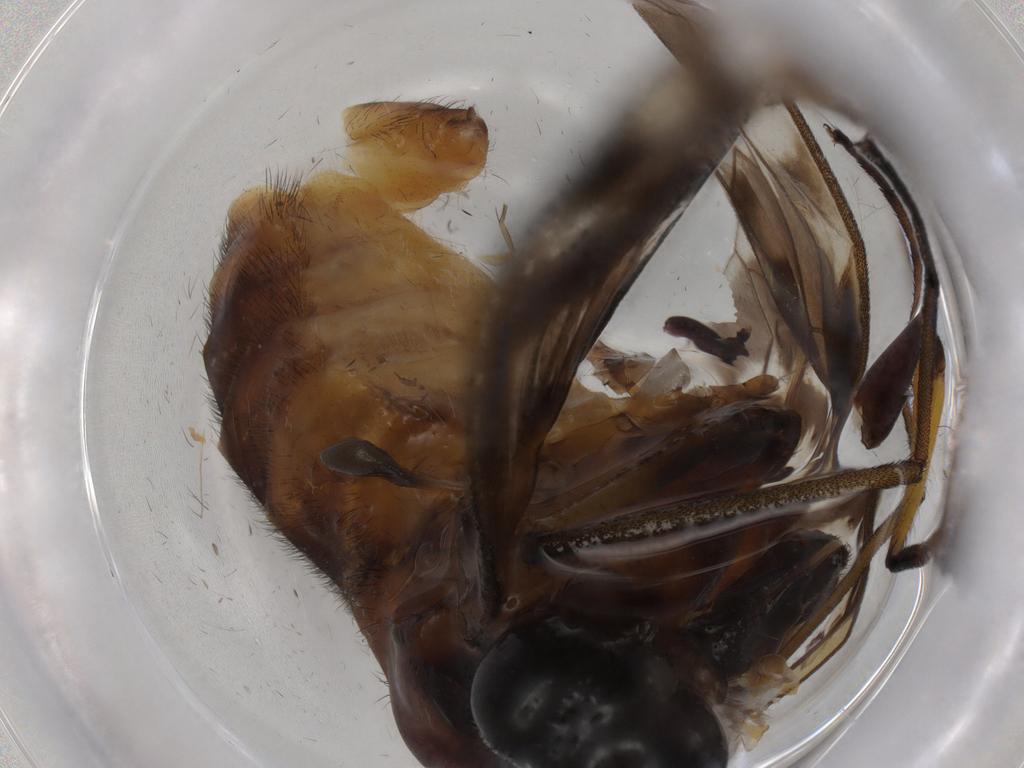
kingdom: Animalia
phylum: Arthropoda
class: Insecta
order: Diptera
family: Athericidae
